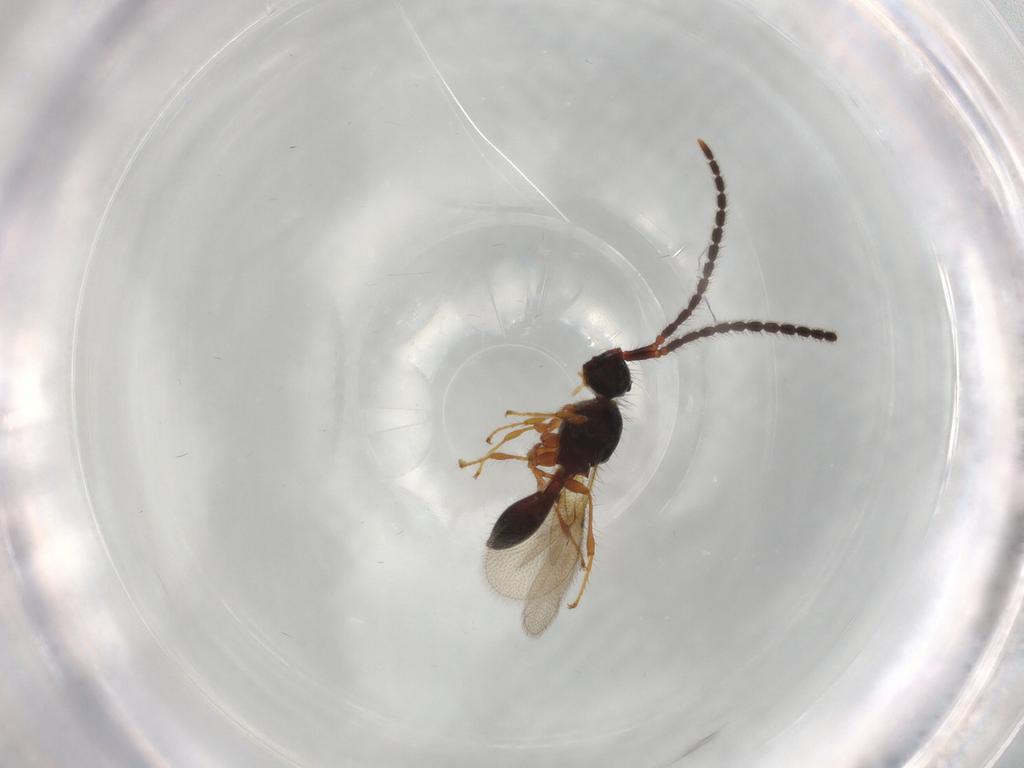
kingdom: Animalia
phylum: Arthropoda
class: Insecta
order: Hymenoptera
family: Diapriidae
